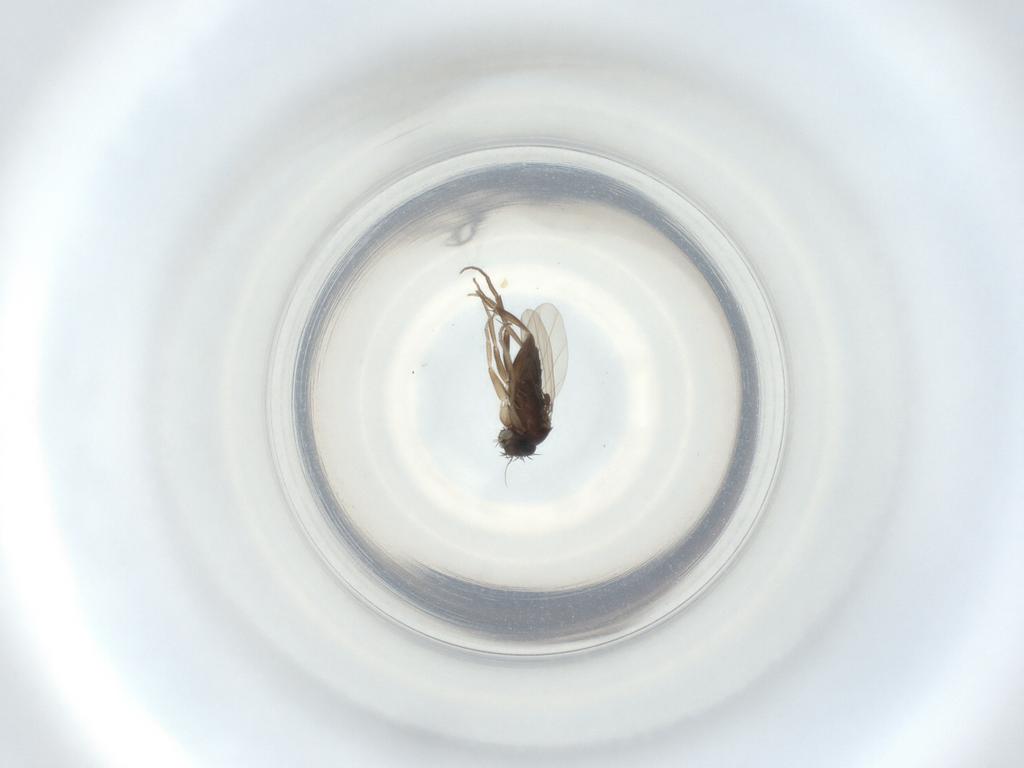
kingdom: Animalia
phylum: Arthropoda
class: Insecta
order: Diptera
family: Phoridae
